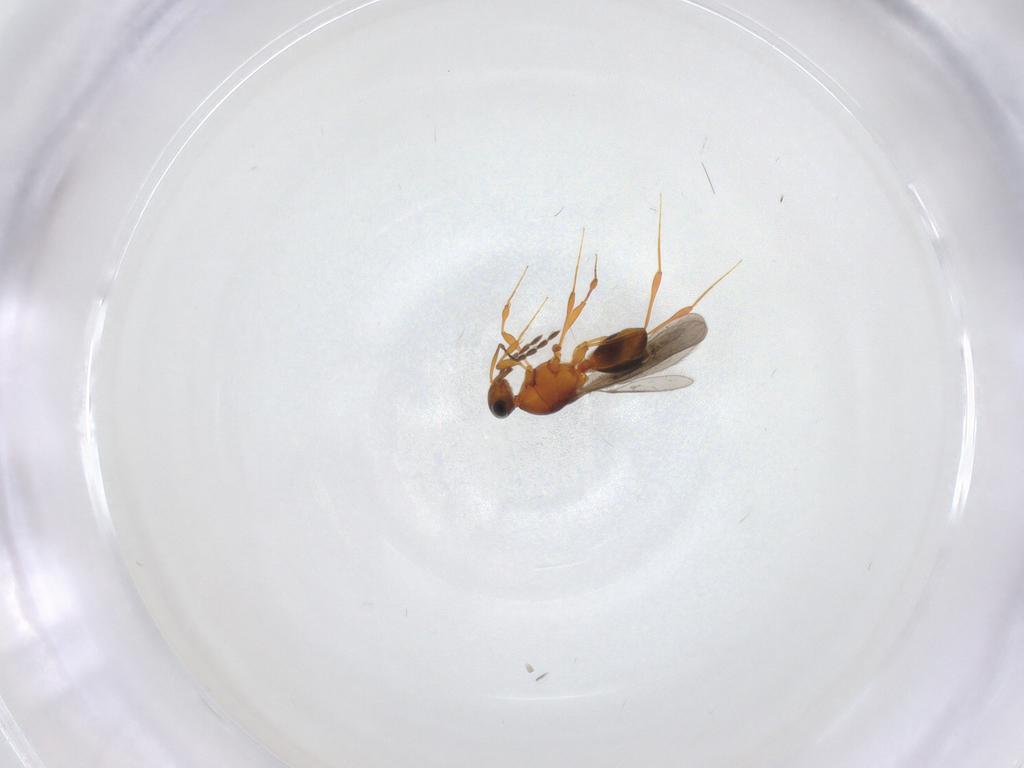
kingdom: Animalia
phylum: Arthropoda
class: Insecta
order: Hymenoptera
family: Platygastridae
